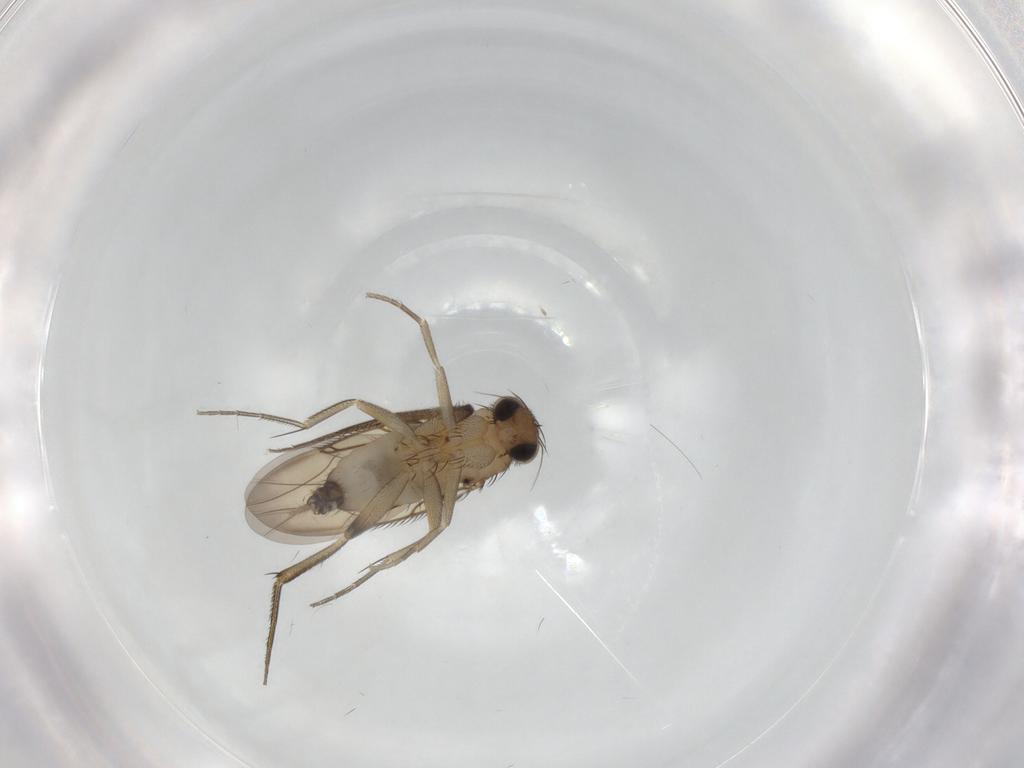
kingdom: Animalia
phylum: Arthropoda
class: Insecta
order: Diptera
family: Phoridae
